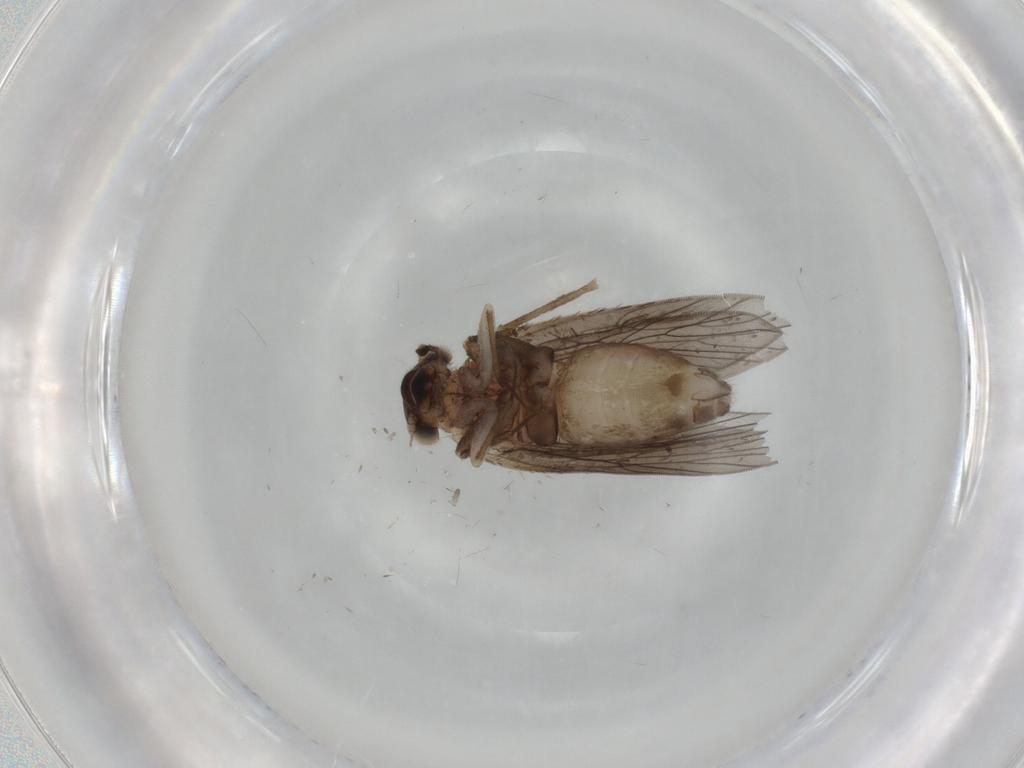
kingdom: Animalia
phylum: Arthropoda
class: Insecta
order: Psocodea
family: Lepidopsocidae
